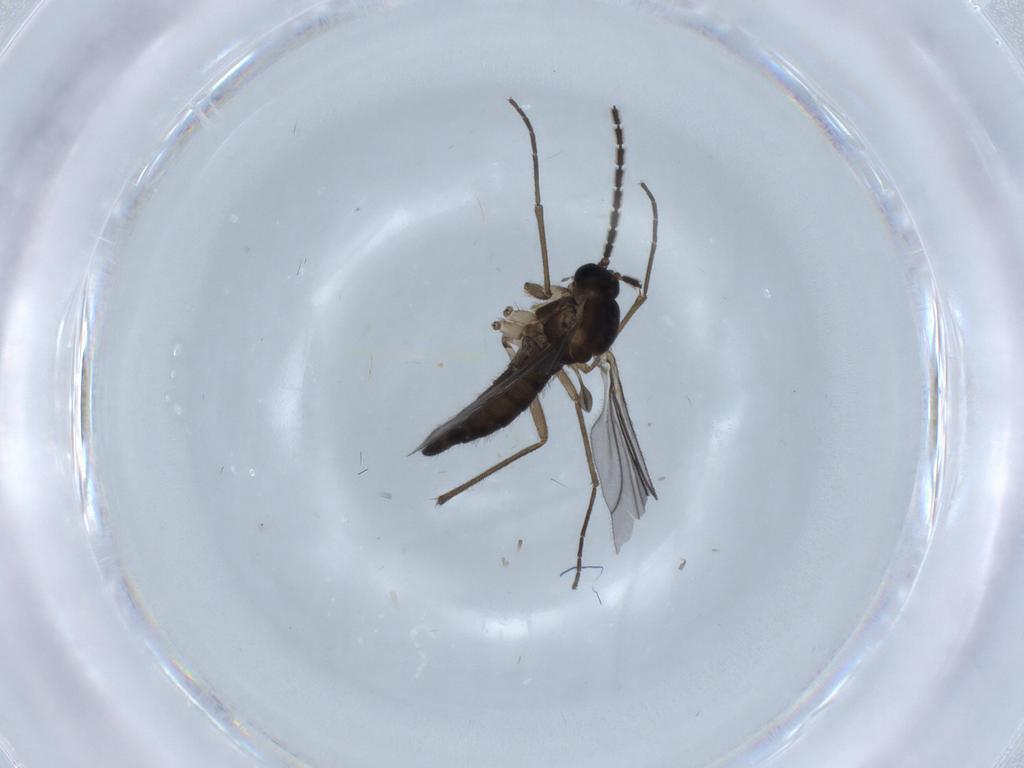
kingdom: Animalia
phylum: Arthropoda
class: Insecta
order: Diptera
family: Sciaridae
